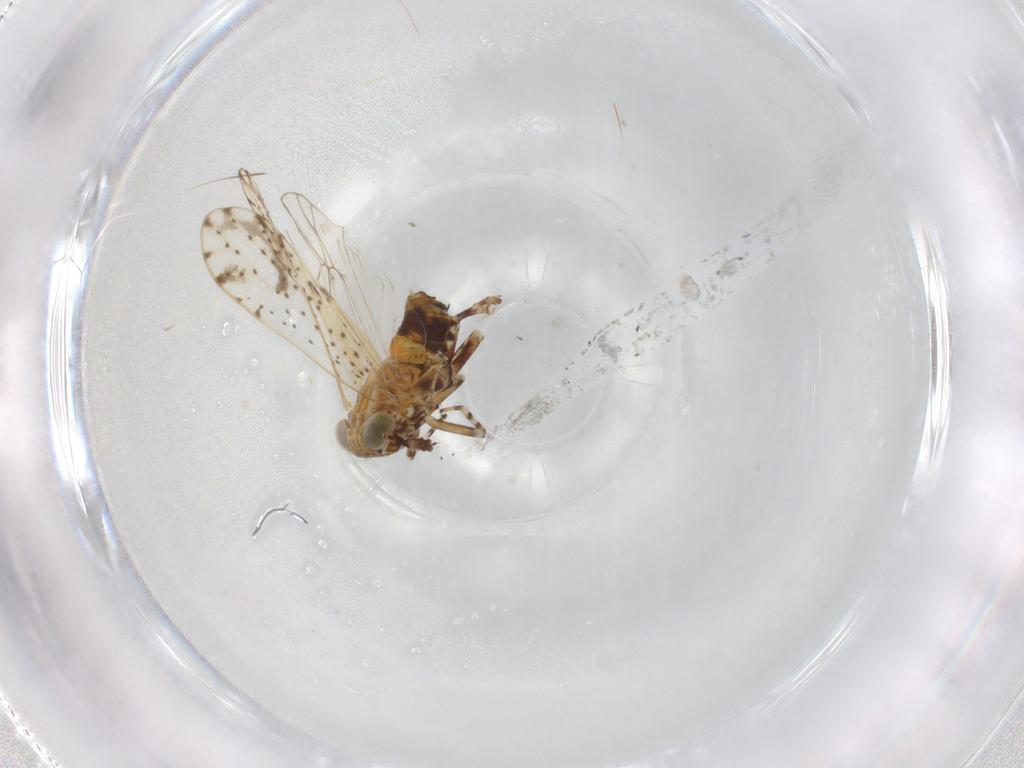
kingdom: Animalia
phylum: Arthropoda
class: Insecta
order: Hemiptera
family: Delphacidae
